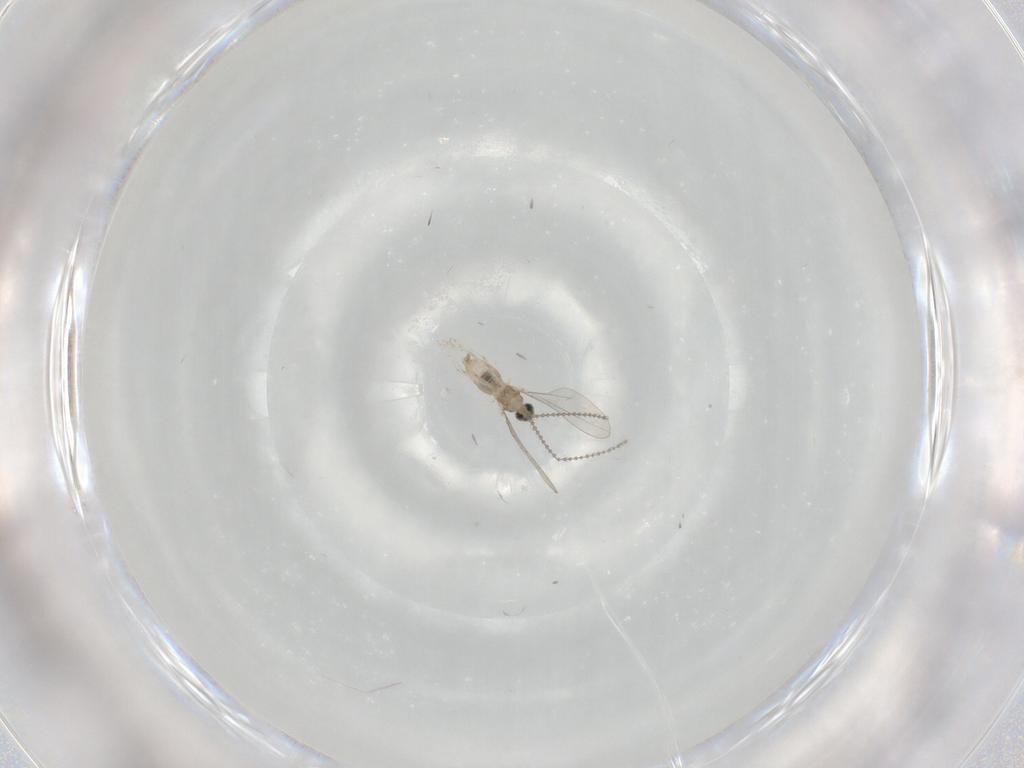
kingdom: Animalia
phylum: Arthropoda
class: Insecta
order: Diptera
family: Cecidomyiidae
